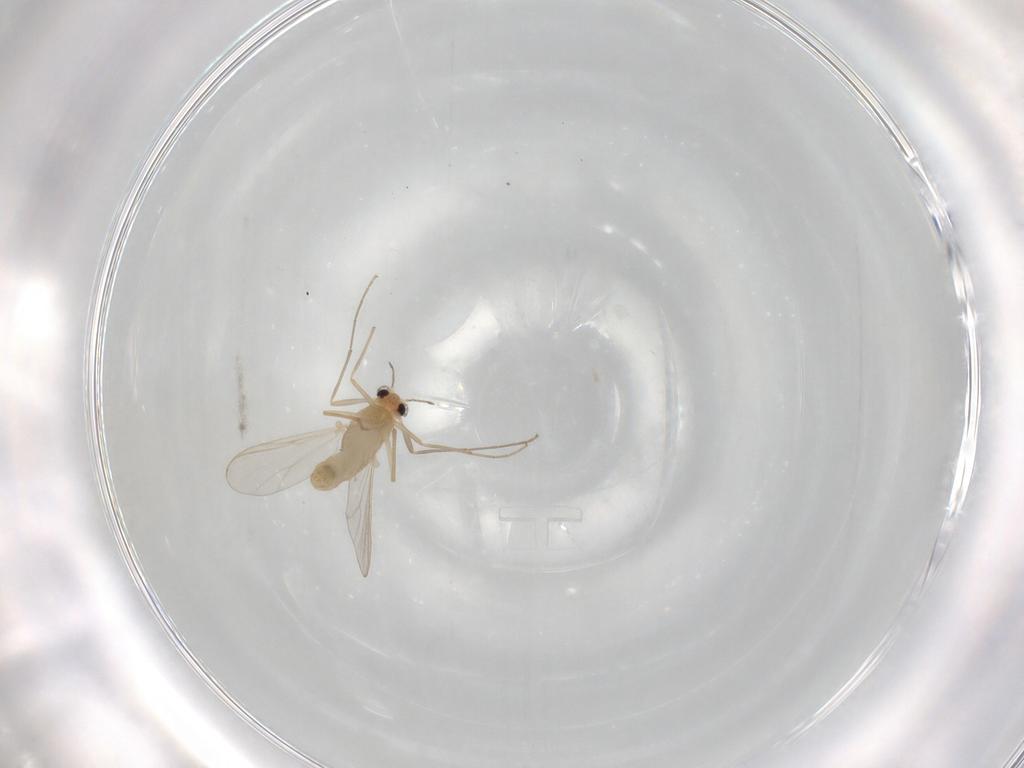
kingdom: Animalia
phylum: Arthropoda
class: Insecta
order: Diptera
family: Chironomidae
